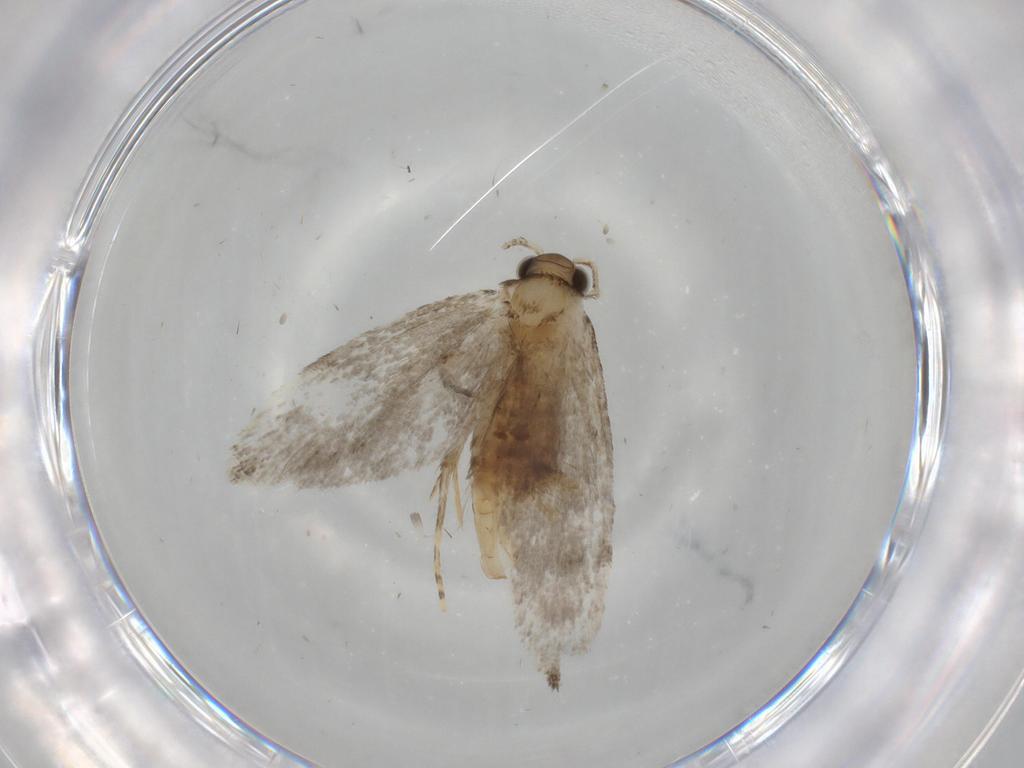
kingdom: Animalia
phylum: Arthropoda
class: Insecta
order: Lepidoptera
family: Tineidae
